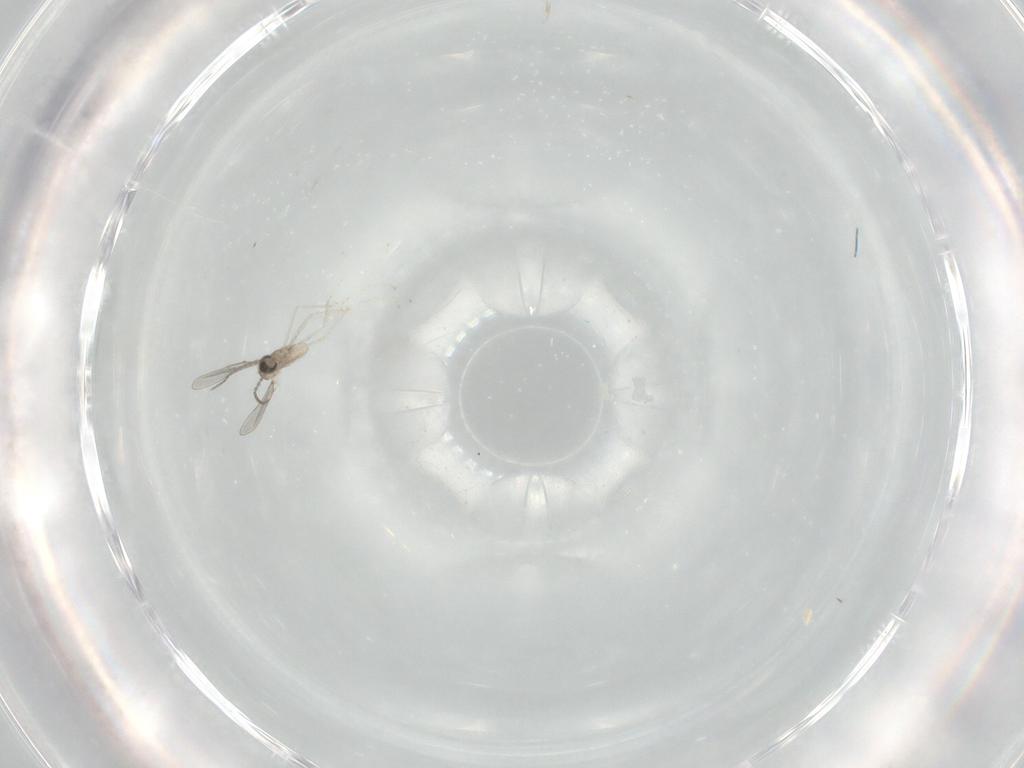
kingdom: Animalia
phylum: Arthropoda
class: Insecta
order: Diptera
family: Cecidomyiidae
